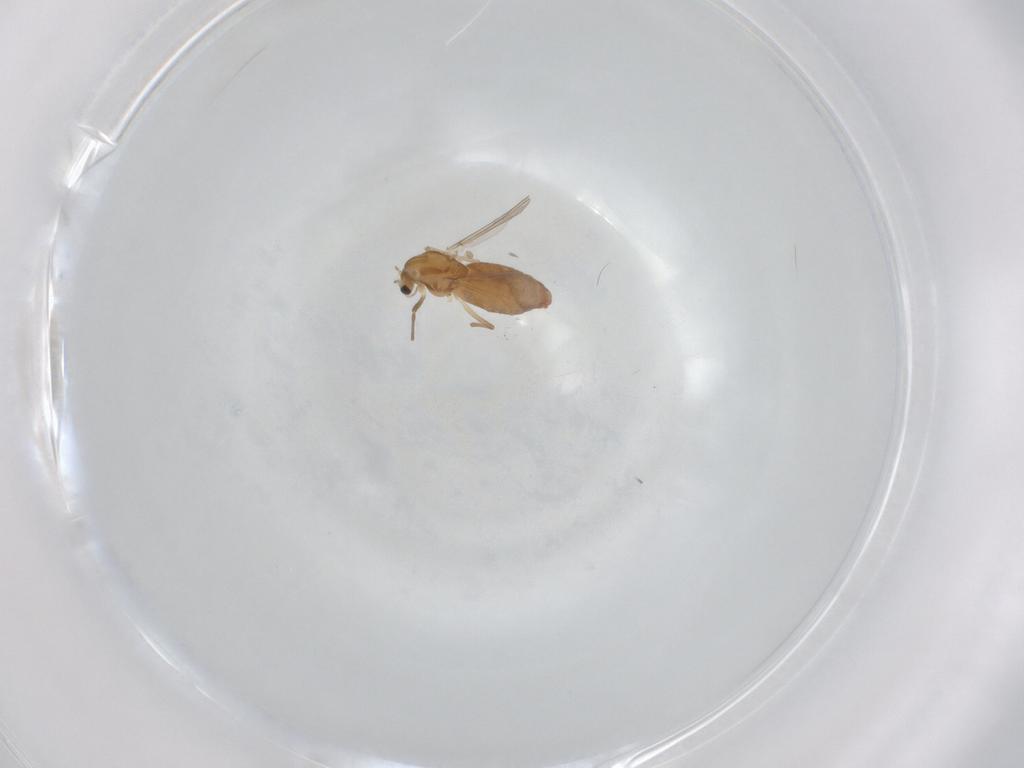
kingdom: Animalia
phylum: Arthropoda
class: Insecta
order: Diptera
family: Chironomidae
